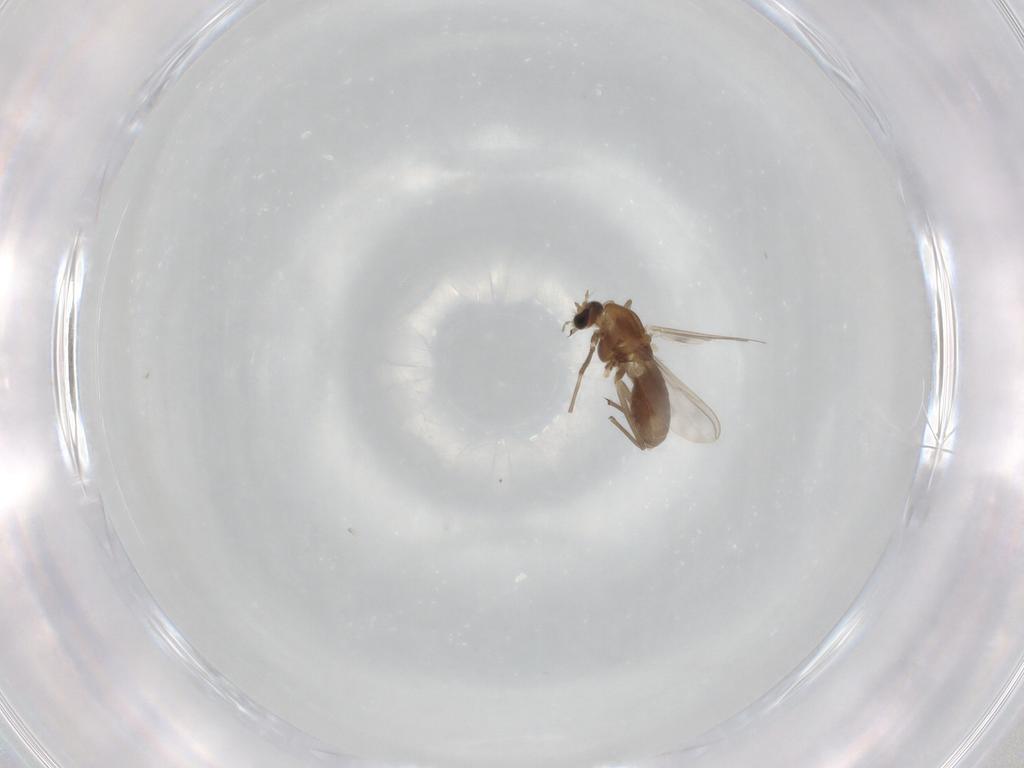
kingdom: Animalia
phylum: Arthropoda
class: Insecta
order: Diptera
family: Chironomidae
